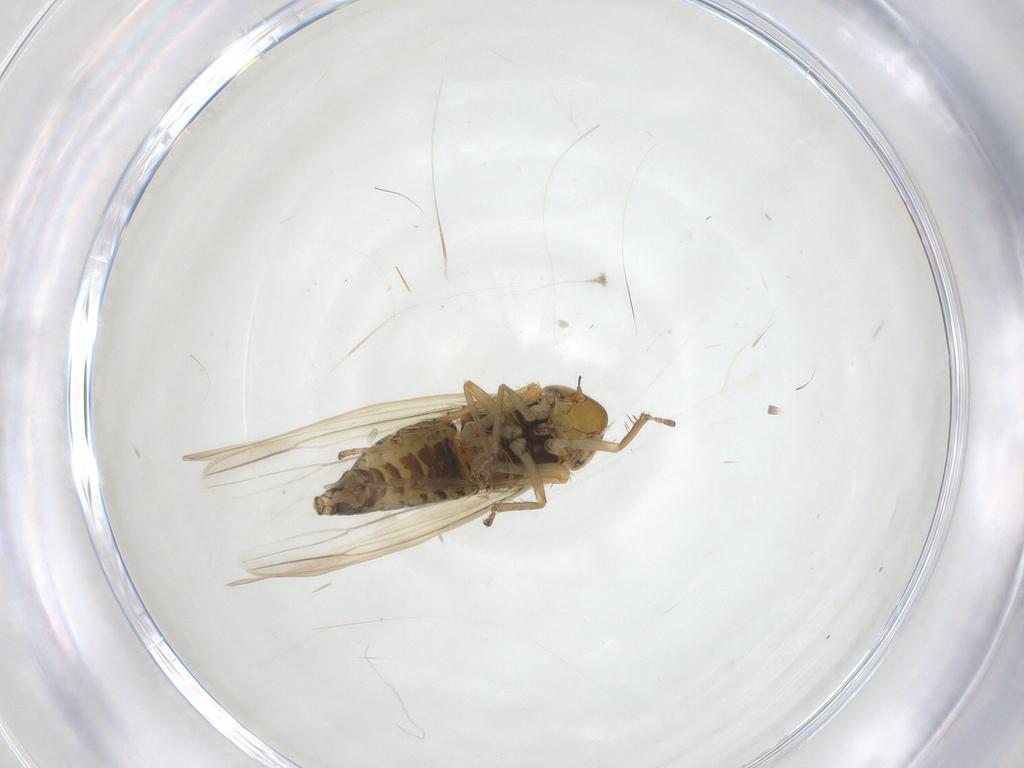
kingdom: Animalia
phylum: Arthropoda
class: Insecta
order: Hemiptera
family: Cicadellidae
